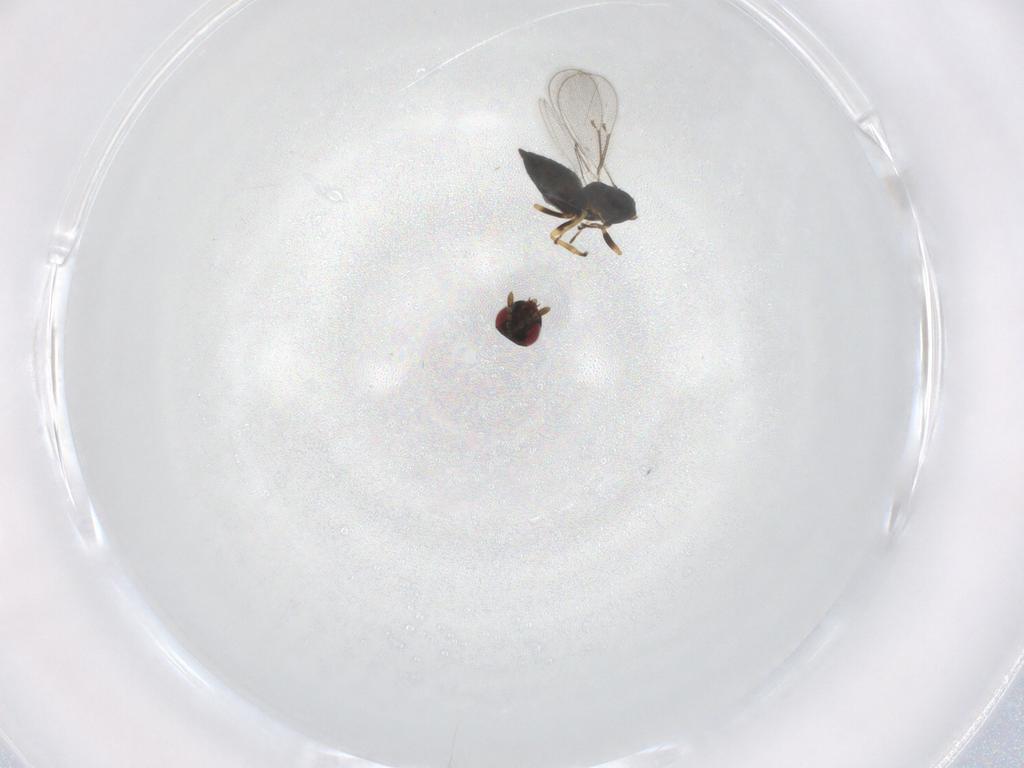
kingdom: Animalia
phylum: Arthropoda
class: Insecta
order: Hymenoptera
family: Eulophidae
